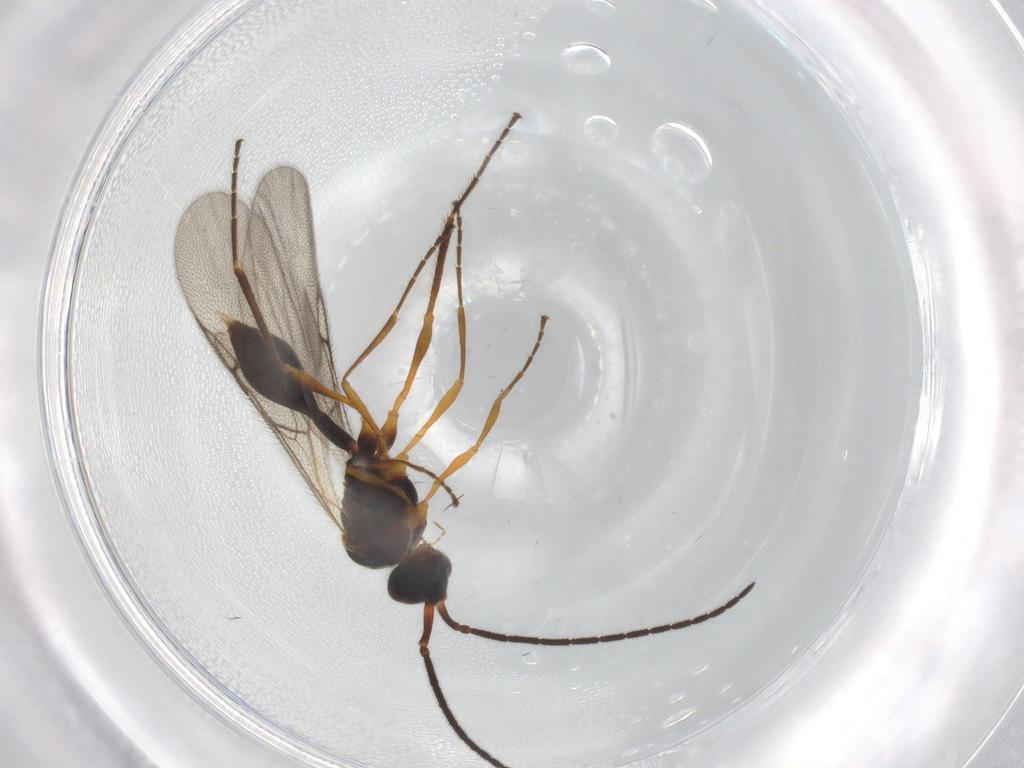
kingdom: Animalia
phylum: Arthropoda
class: Insecta
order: Hymenoptera
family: Diapriidae
